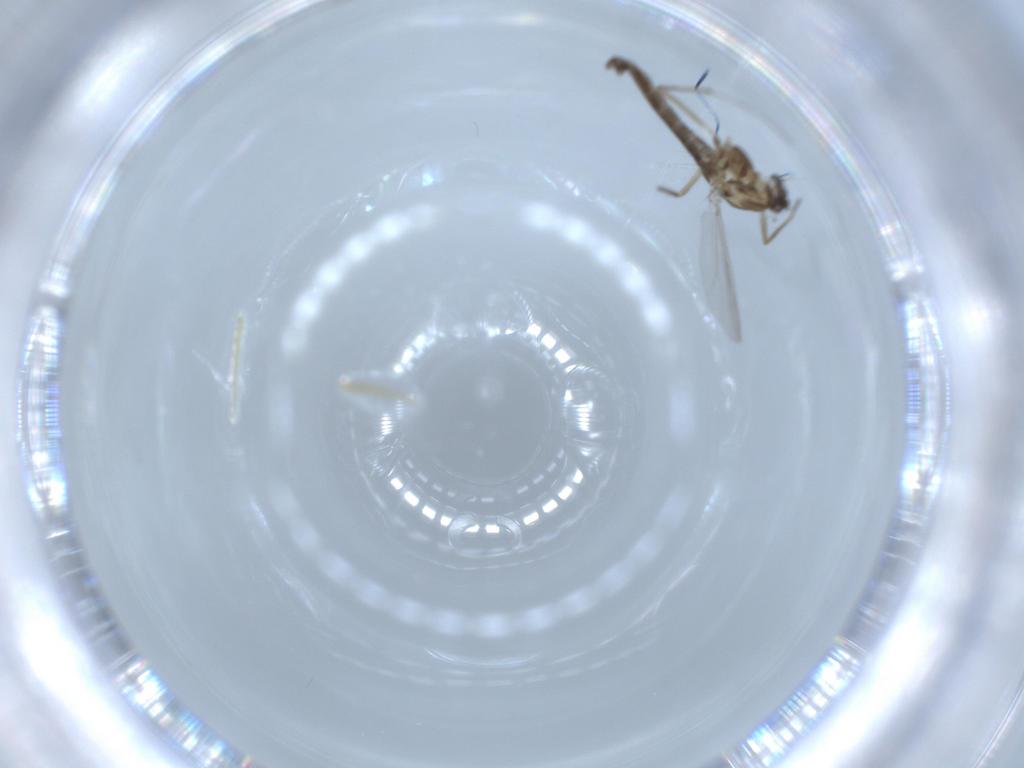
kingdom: Animalia
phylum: Arthropoda
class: Insecta
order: Diptera
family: Chironomidae
